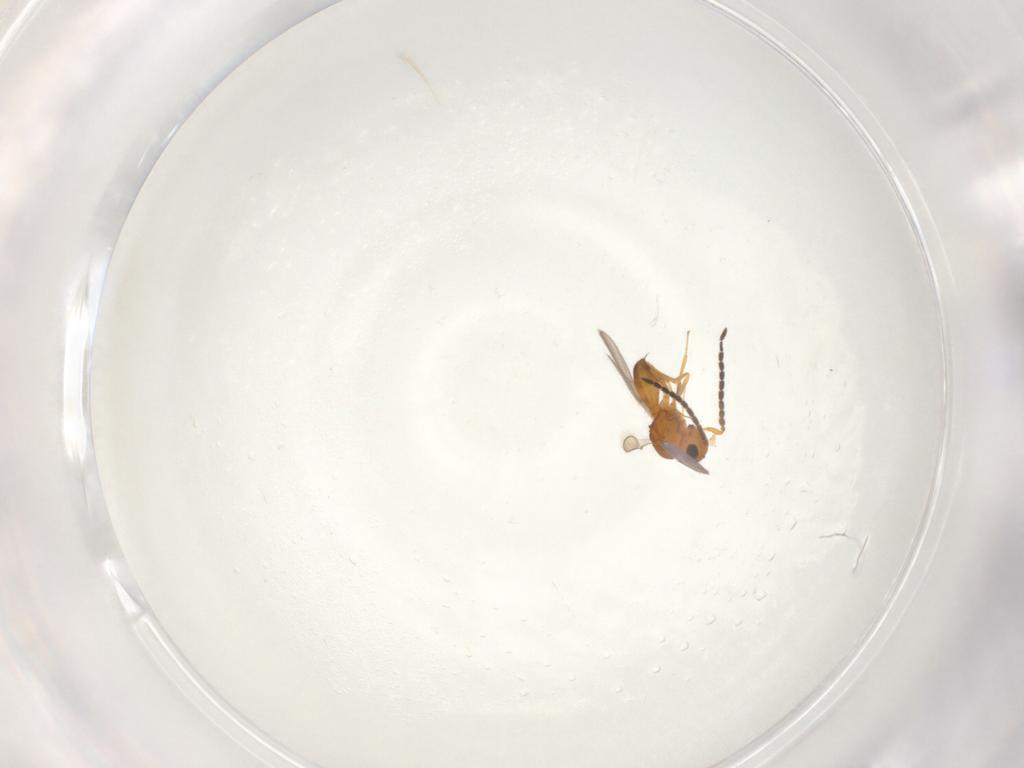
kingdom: Animalia
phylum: Arthropoda
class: Insecta
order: Hymenoptera
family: Scelionidae
